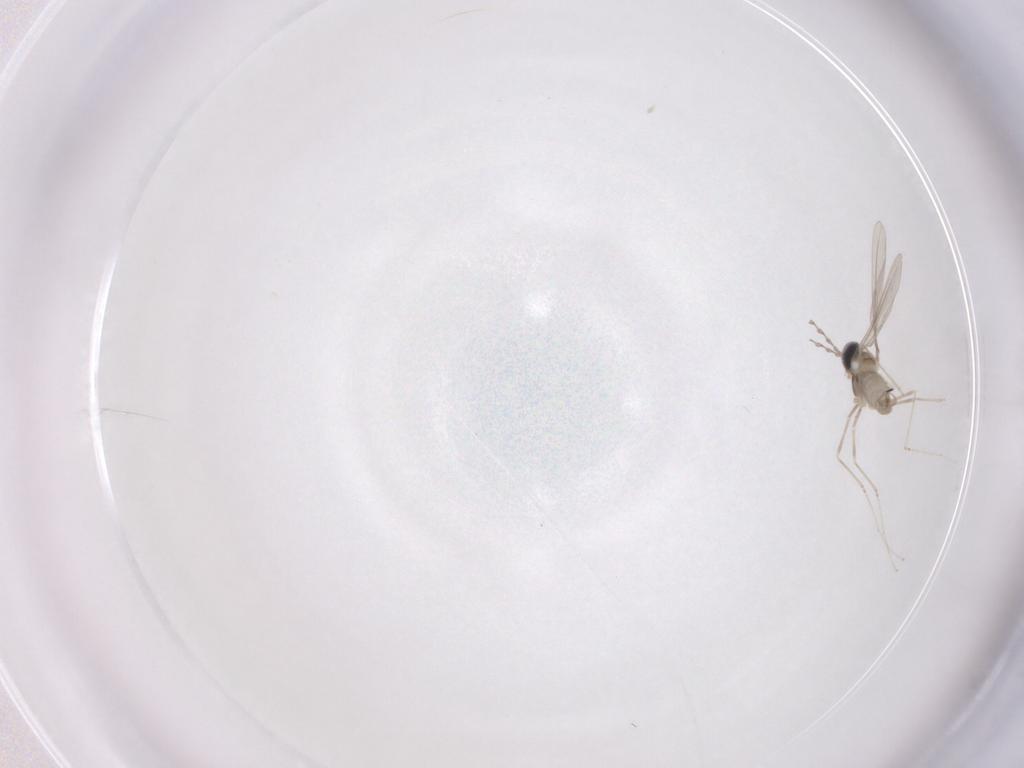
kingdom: Animalia
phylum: Arthropoda
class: Insecta
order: Diptera
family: Cecidomyiidae
